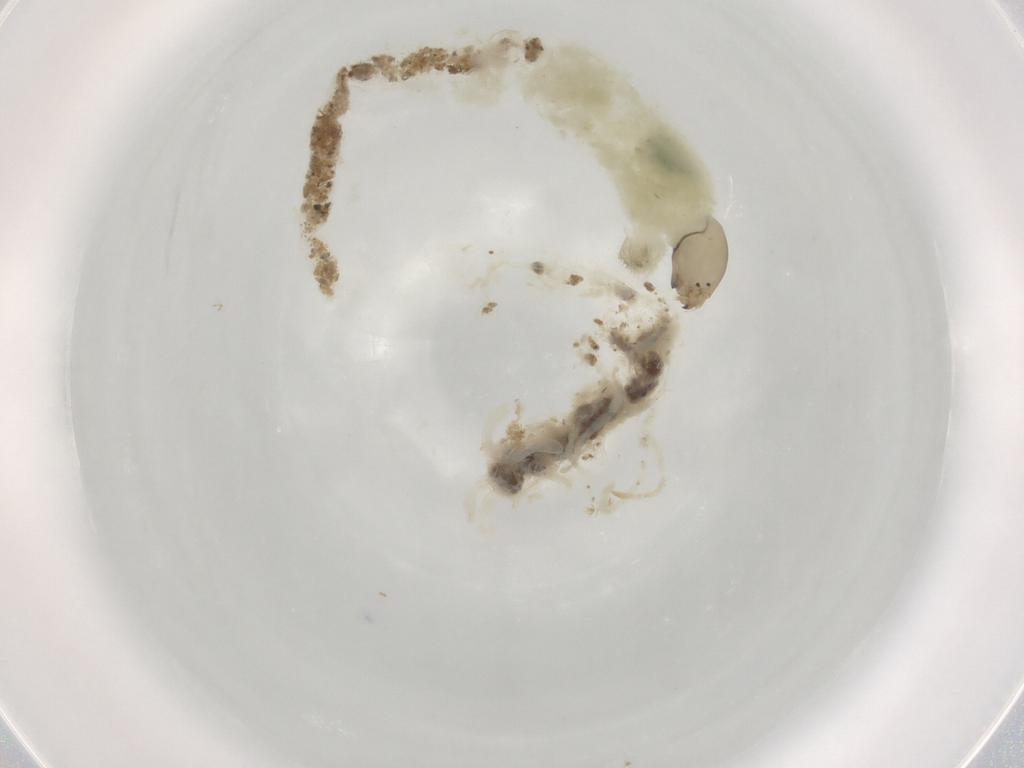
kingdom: Animalia
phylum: Arthropoda
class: Insecta
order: Diptera
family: Chironomidae
